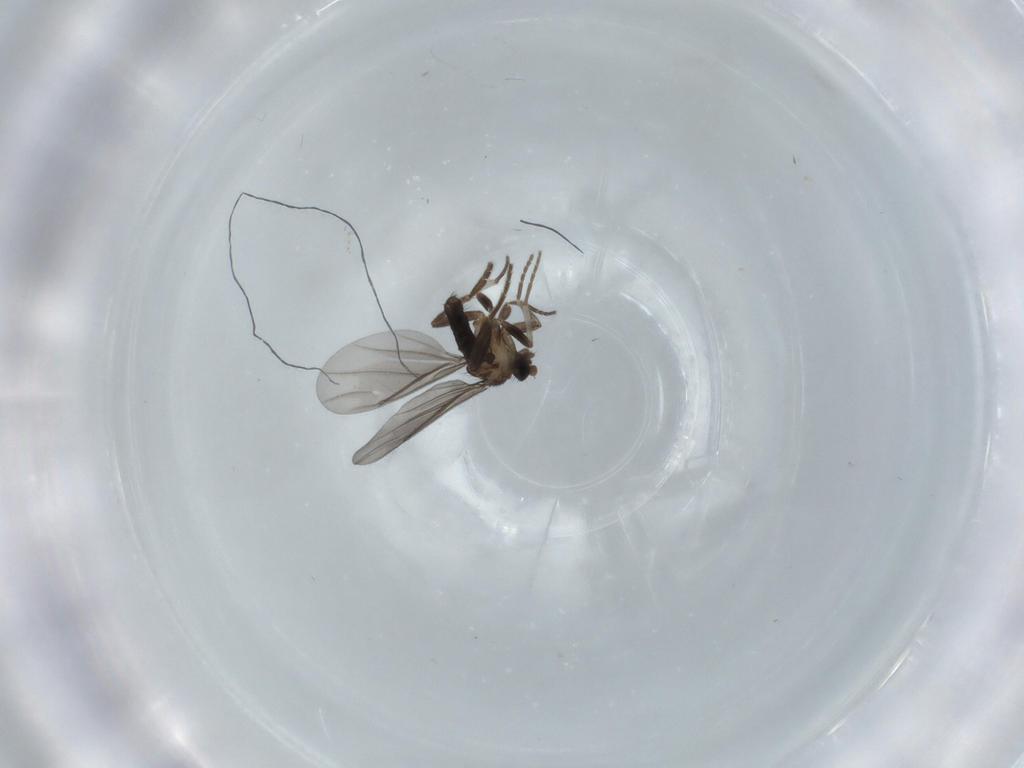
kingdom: Animalia
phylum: Arthropoda
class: Insecta
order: Diptera
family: Phoridae
